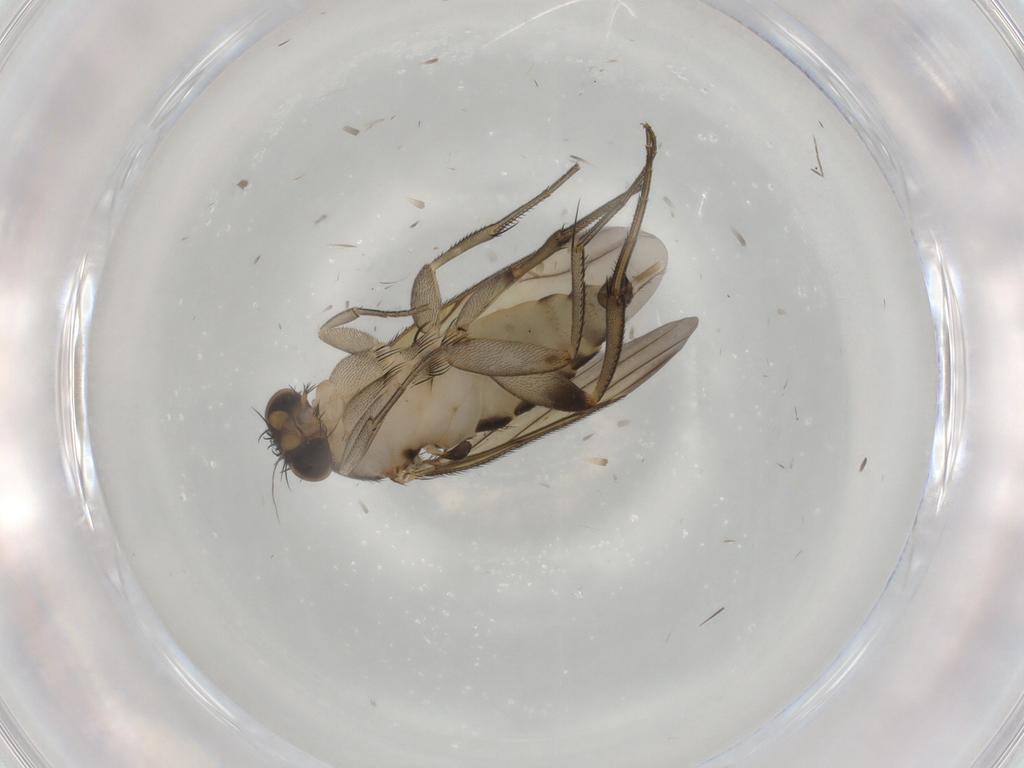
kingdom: Animalia
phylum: Arthropoda
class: Insecta
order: Diptera
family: Phoridae
